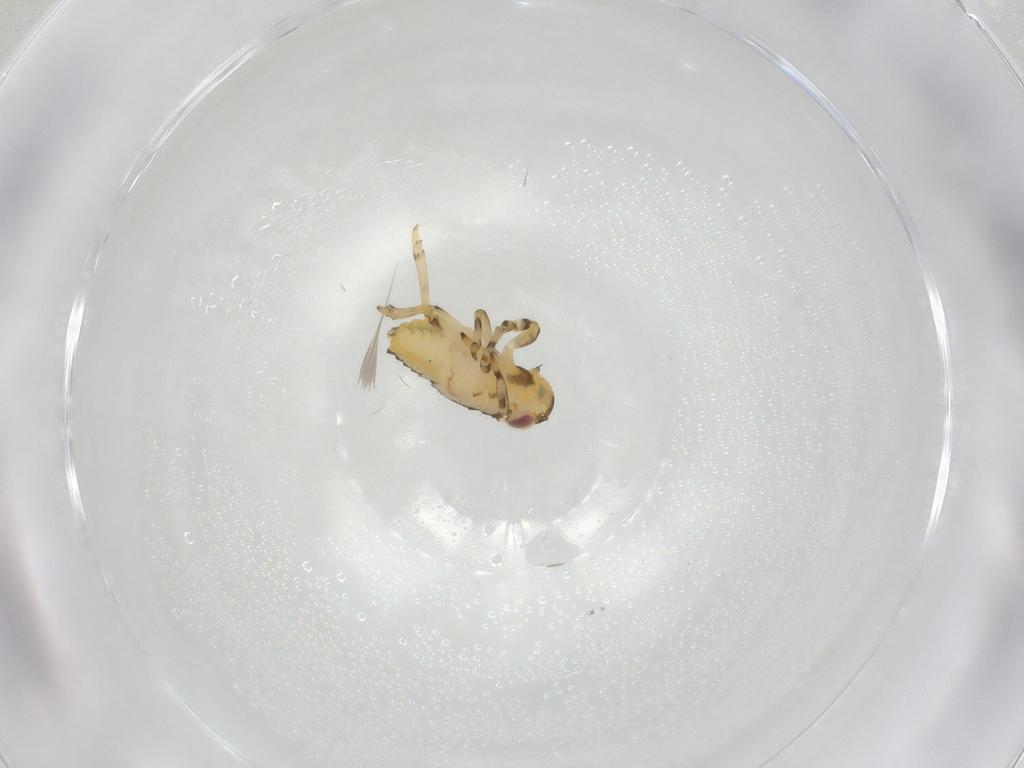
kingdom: Animalia
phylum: Arthropoda
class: Insecta
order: Hemiptera
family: Issidae
